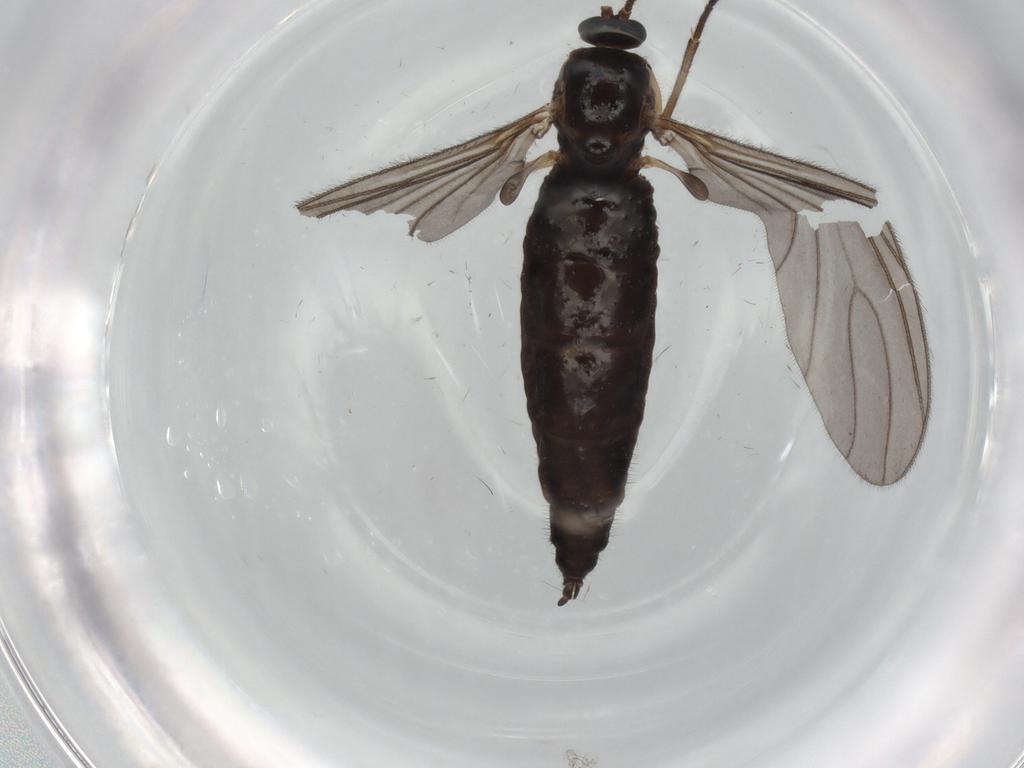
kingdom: Animalia
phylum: Arthropoda
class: Insecta
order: Diptera
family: Sciaridae
